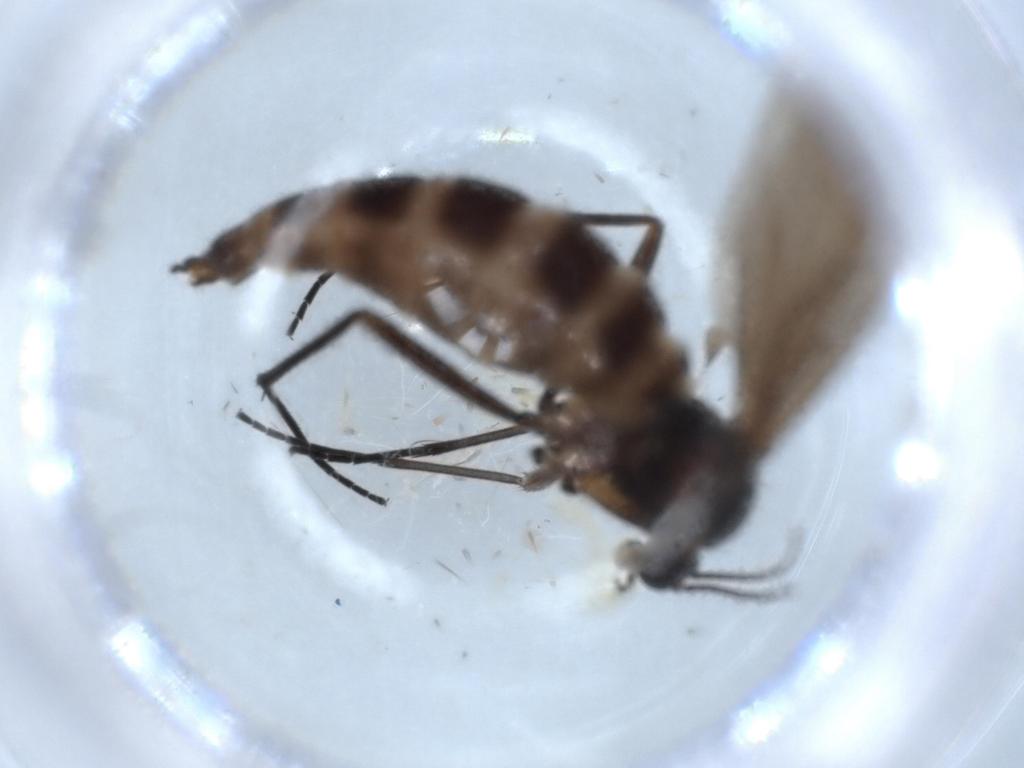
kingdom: Animalia
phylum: Arthropoda
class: Insecta
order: Diptera
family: Sciaridae
